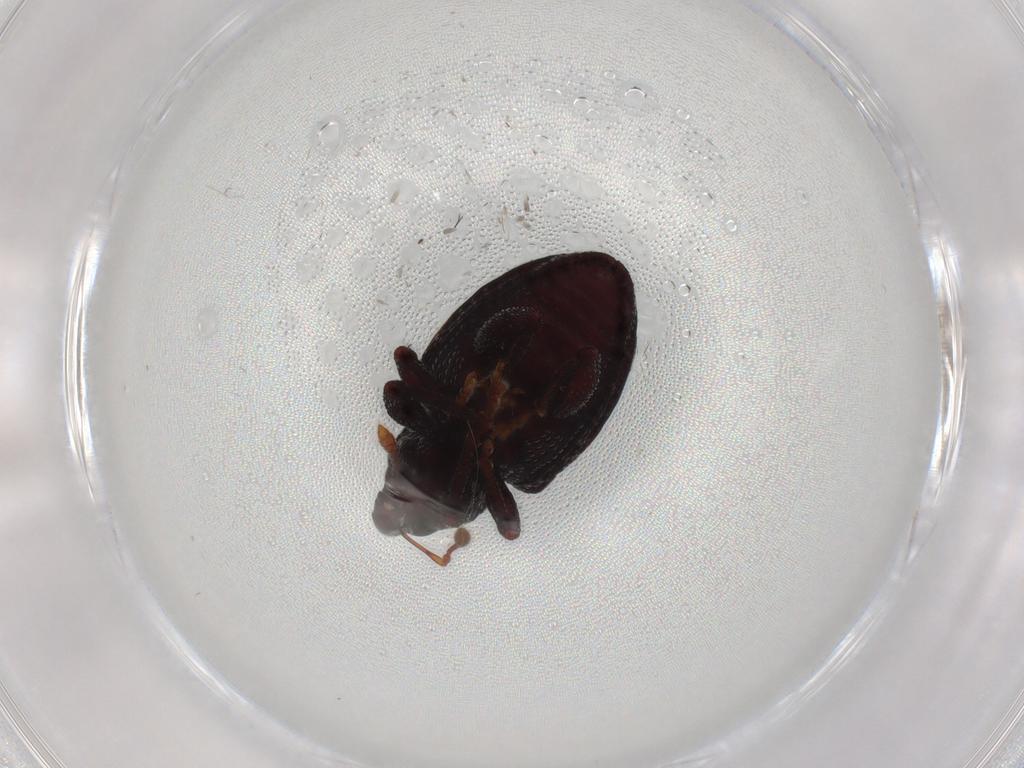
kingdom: Animalia
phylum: Arthropoda
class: Insecta
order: Coleoptera
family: Curculionidae
